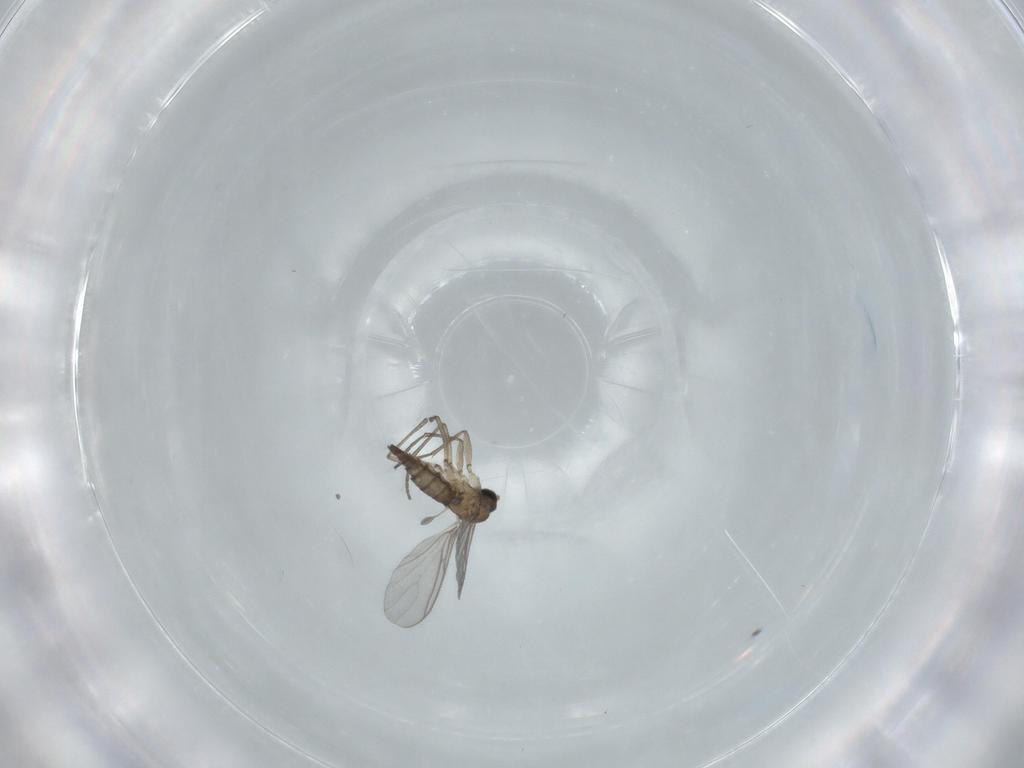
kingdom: Animalia
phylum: Arthropoda
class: Insecta
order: Diptera
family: Sciaridae
